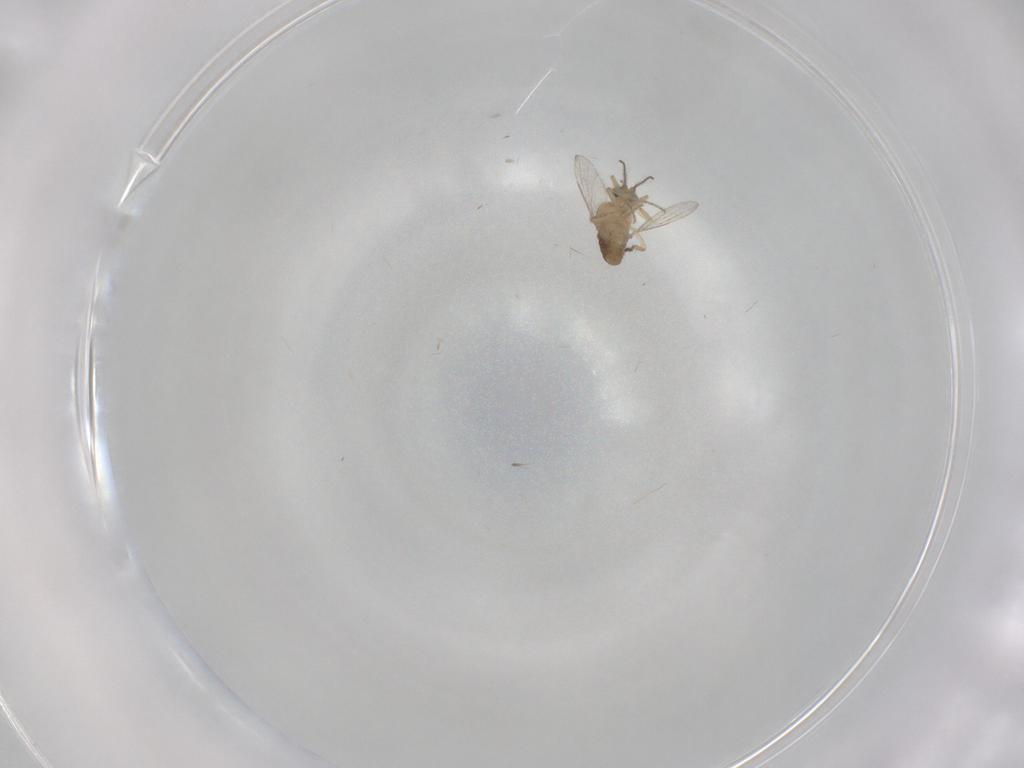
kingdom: Animalia
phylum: Arthropoda
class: Insecta
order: Diptera
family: Ceratopogonidae
